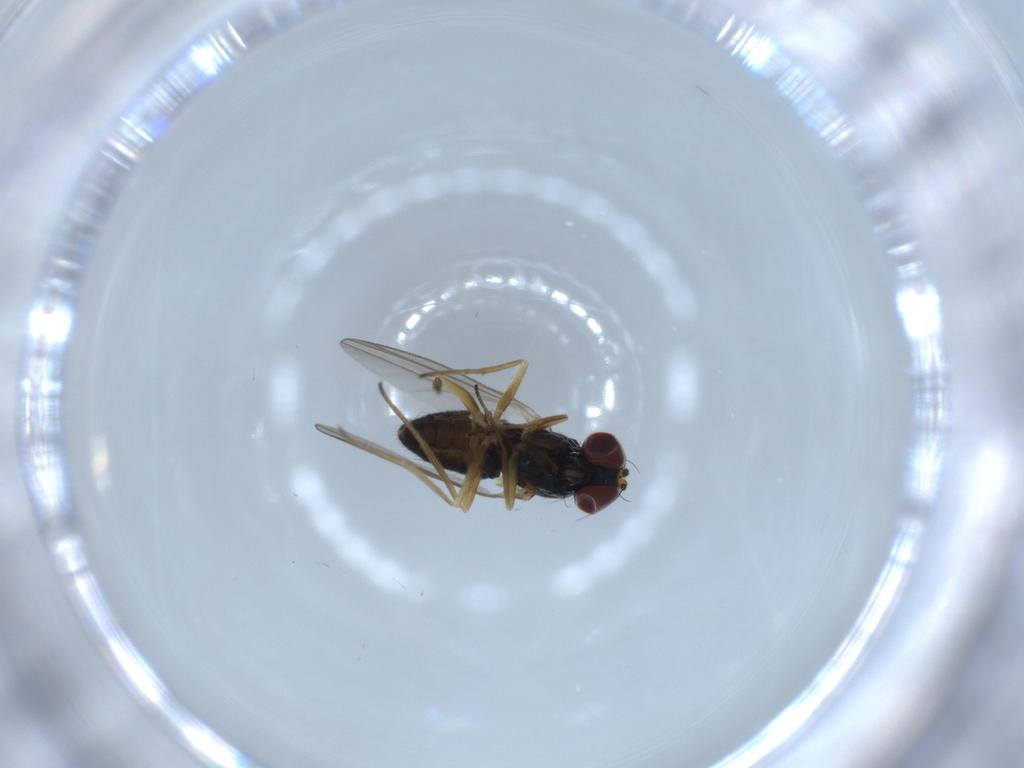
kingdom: Animalia
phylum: Arthropoda
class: Insecta
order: Diptera
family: Dolichopodidae
